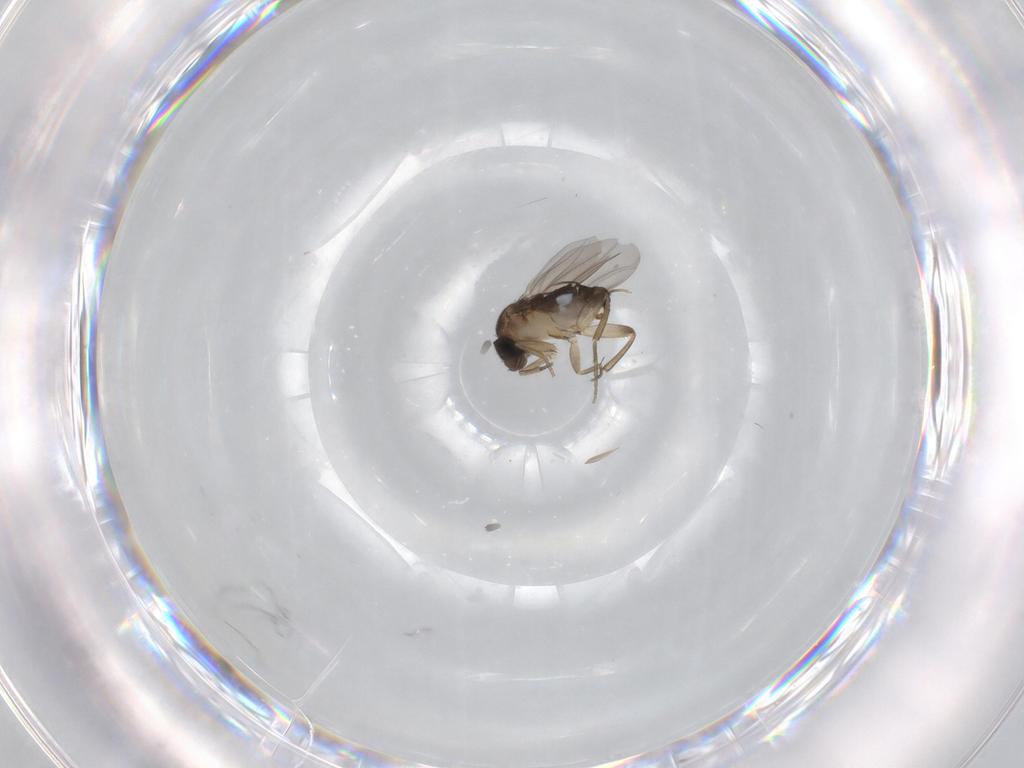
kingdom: Animalia
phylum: Arthropoda
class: Insecta
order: Diptera
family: Phoridae
